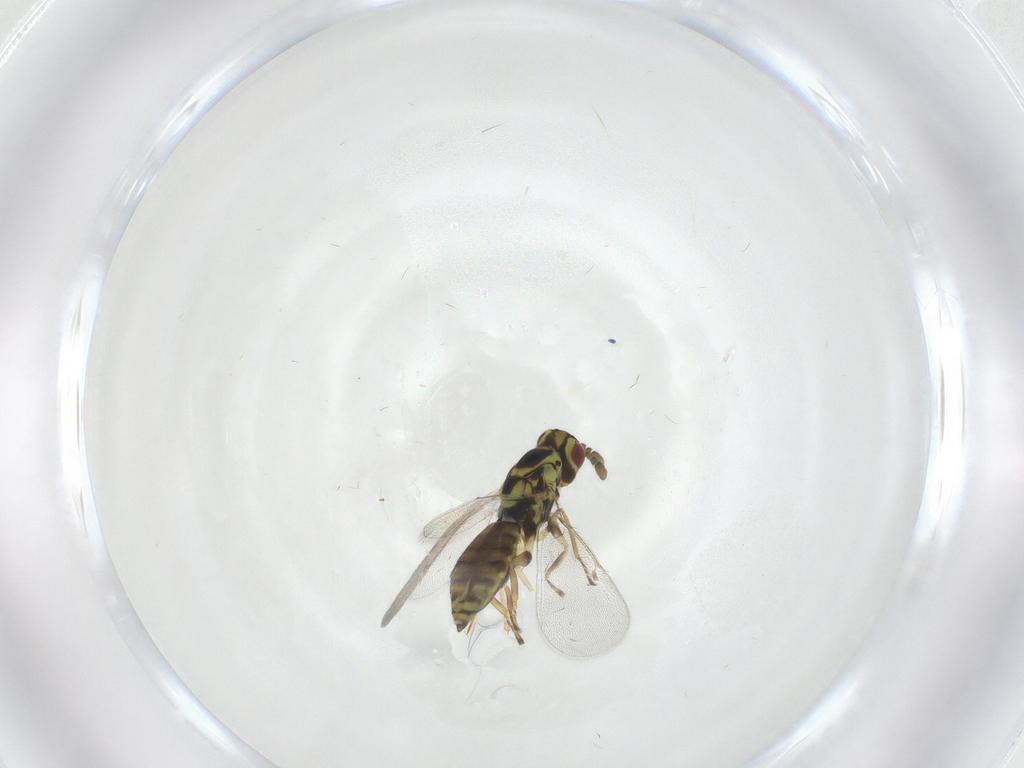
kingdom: Animalia
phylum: Arthropoda
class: Insecta
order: Hymenoptera
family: Eulophidae
